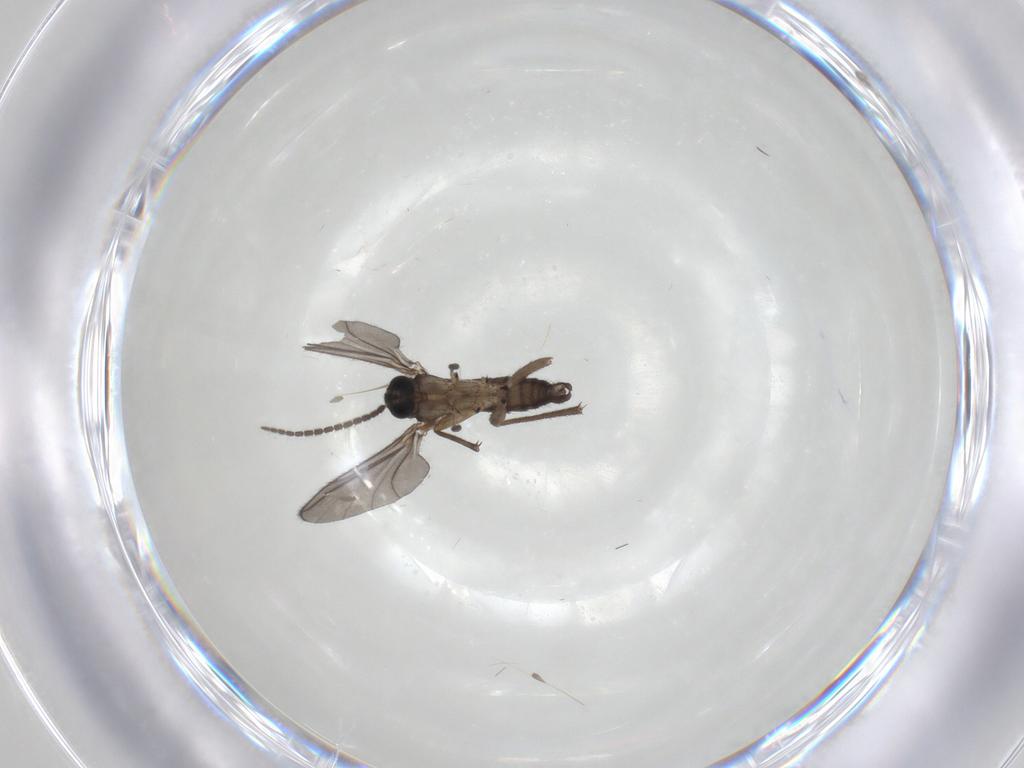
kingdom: Animalia
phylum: Arthropoda
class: Insecta
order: Diptera
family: Sciaridae
